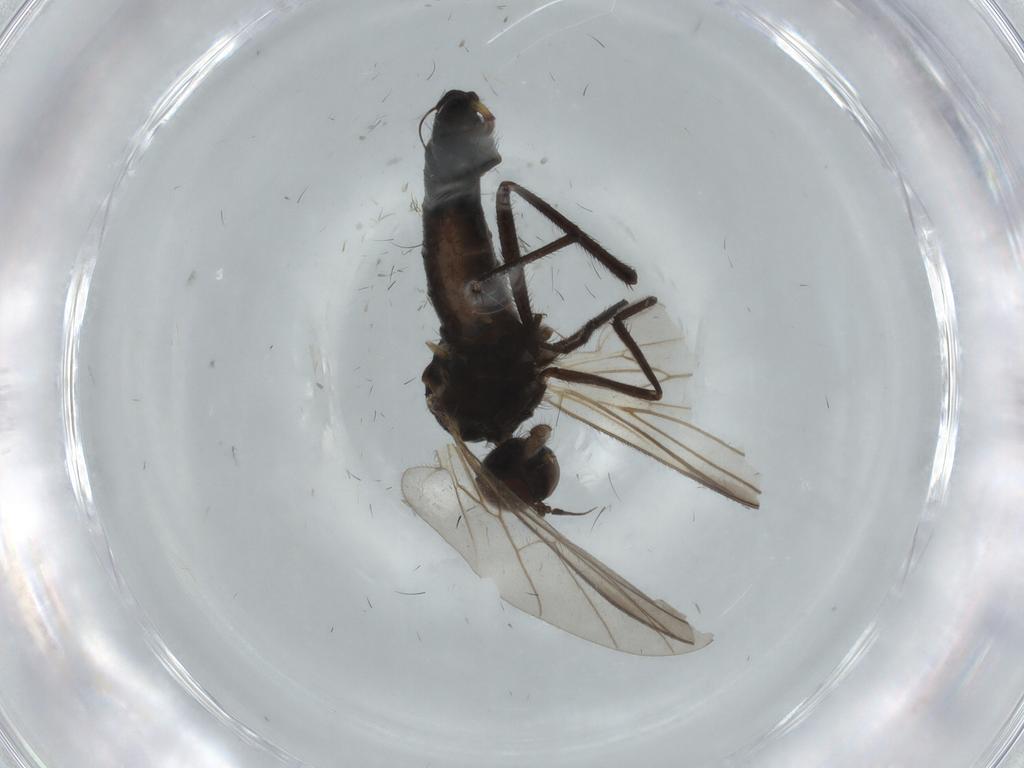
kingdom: Animalia
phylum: Arthropoda
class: Insecta
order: Diptera
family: Empididae
